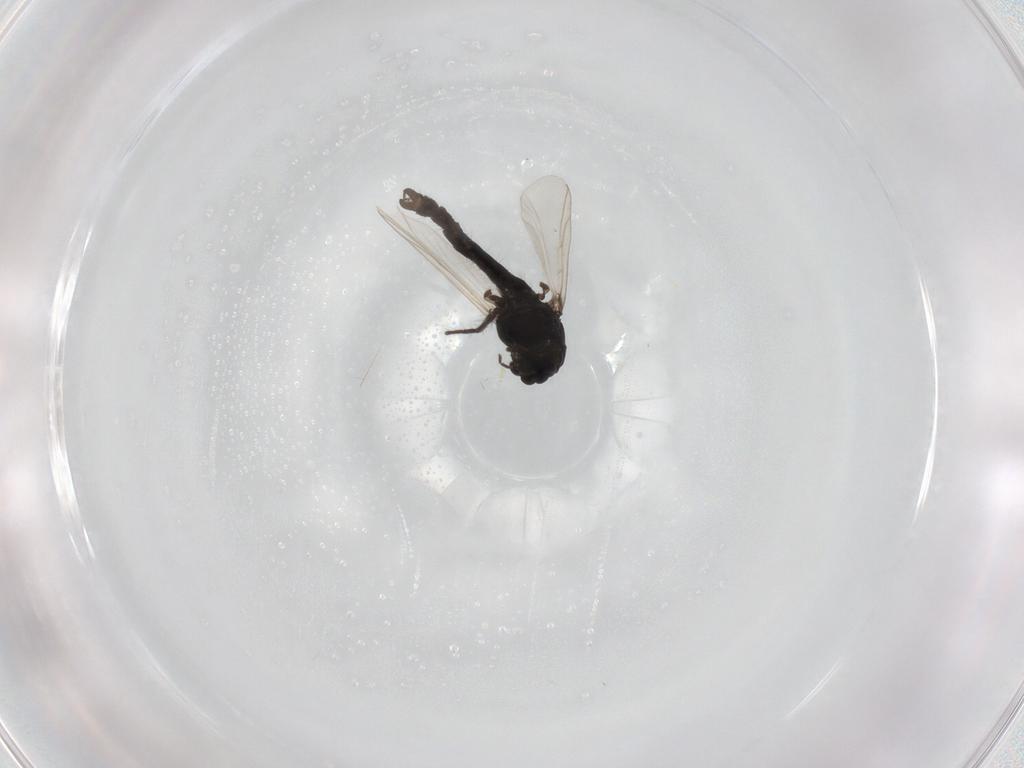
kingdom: Animalia
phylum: Arthropoda
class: Insecta
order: Diptera
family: Chironomidae
